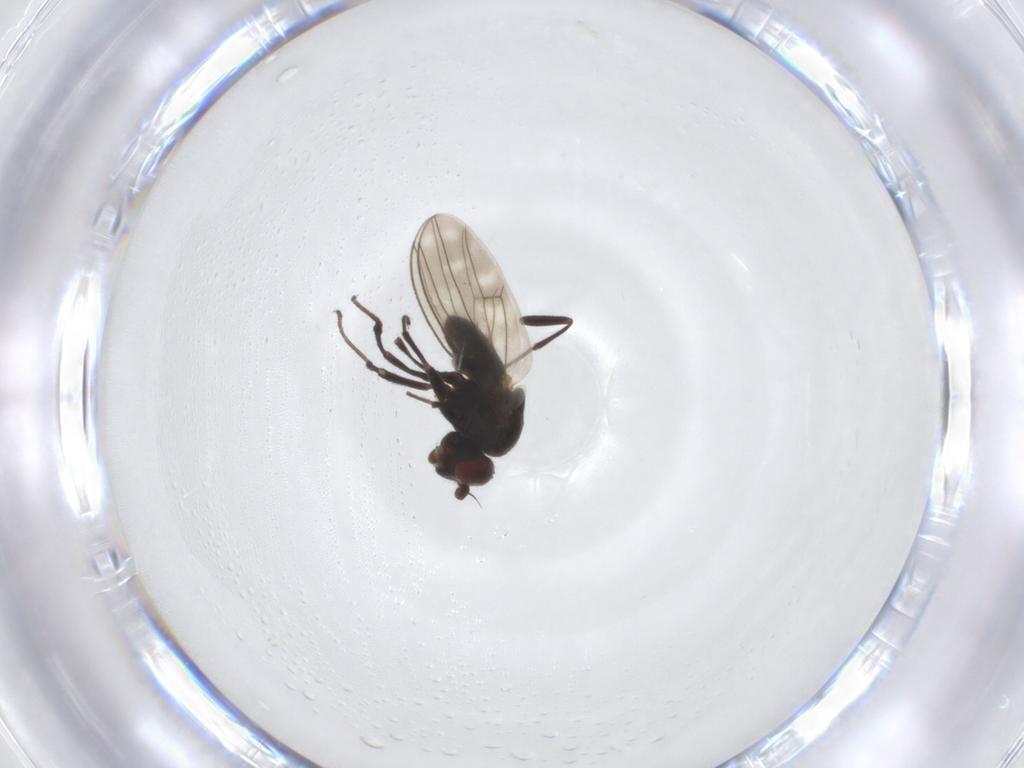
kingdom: Animalia
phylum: Arthropoda
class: Insecta
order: Diptera
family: Ephydridae
